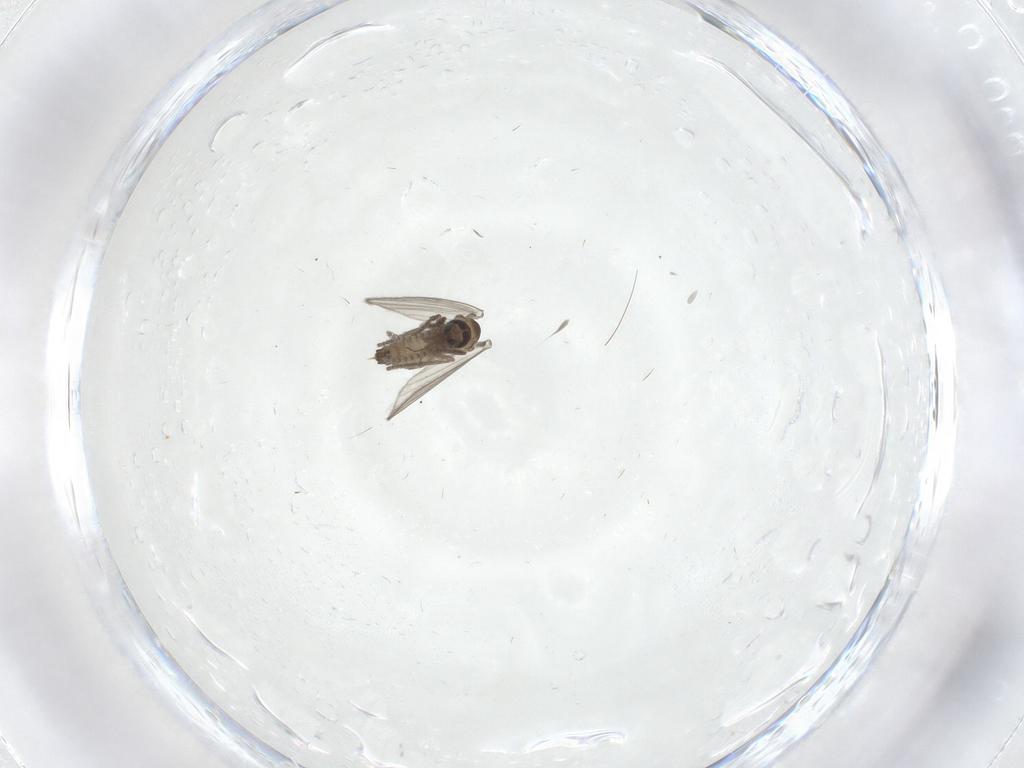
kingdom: Animalia
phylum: Arthropoda
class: Insecta
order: Diptera
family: Psychodidae
